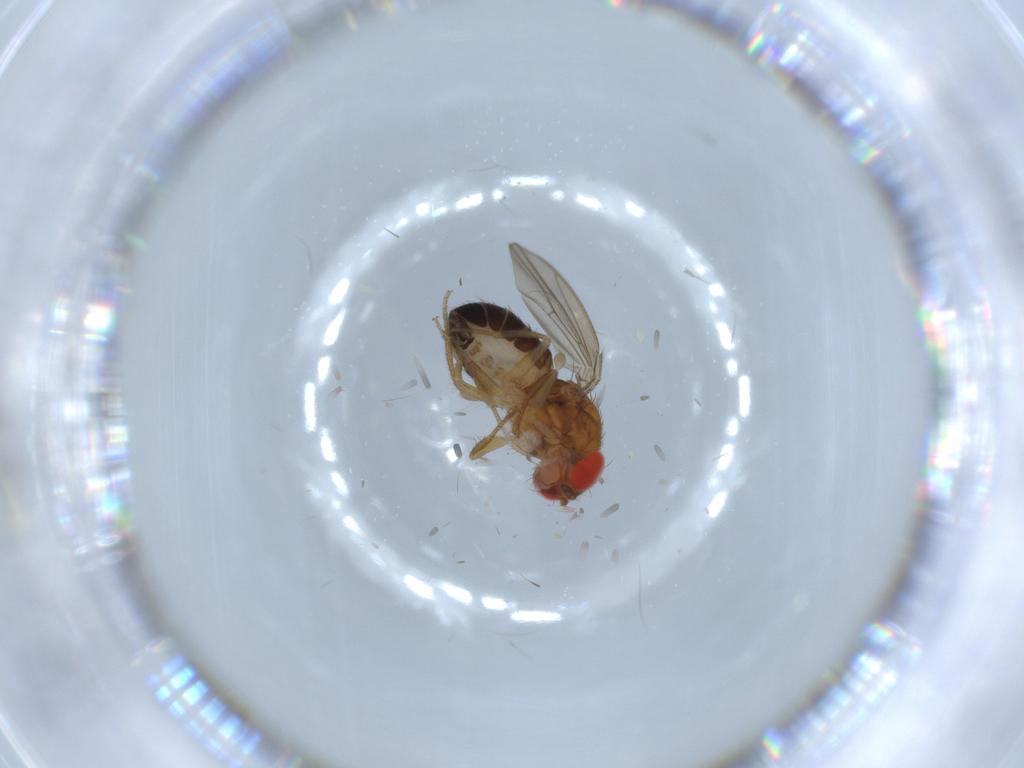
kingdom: Animalia
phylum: Arthropoda
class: Insecta
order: Diptera
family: Drosophilidae
